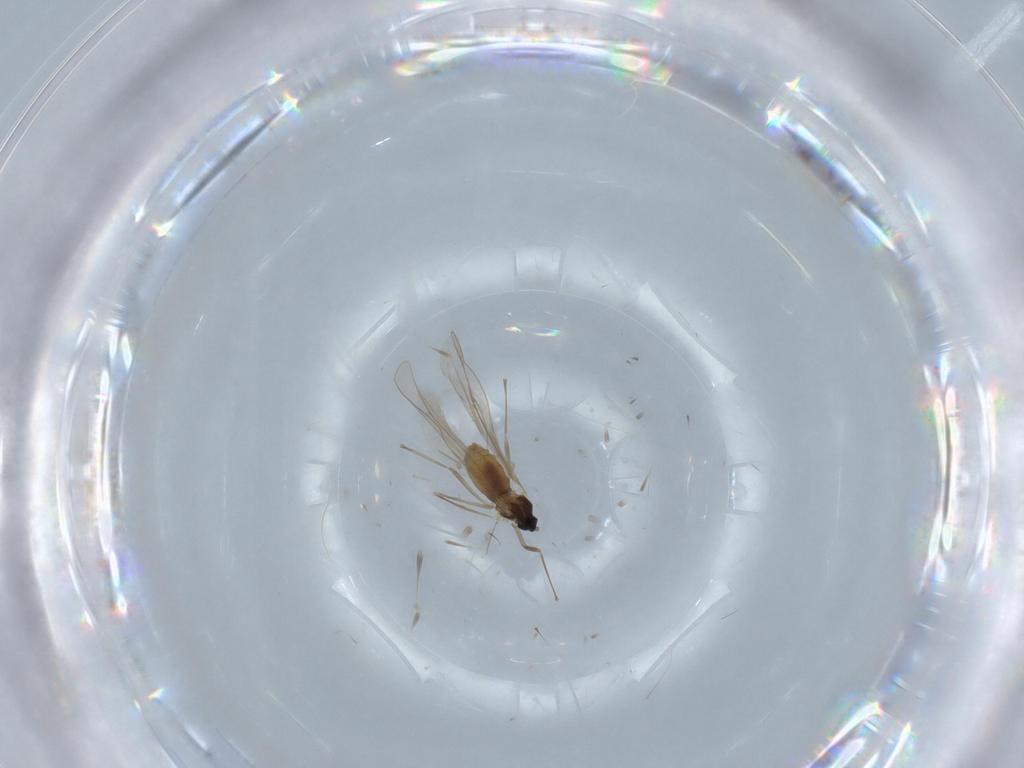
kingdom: Animalia
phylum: Arthropoda
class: Insecta
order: Diptera
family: Cecidomyiidae
